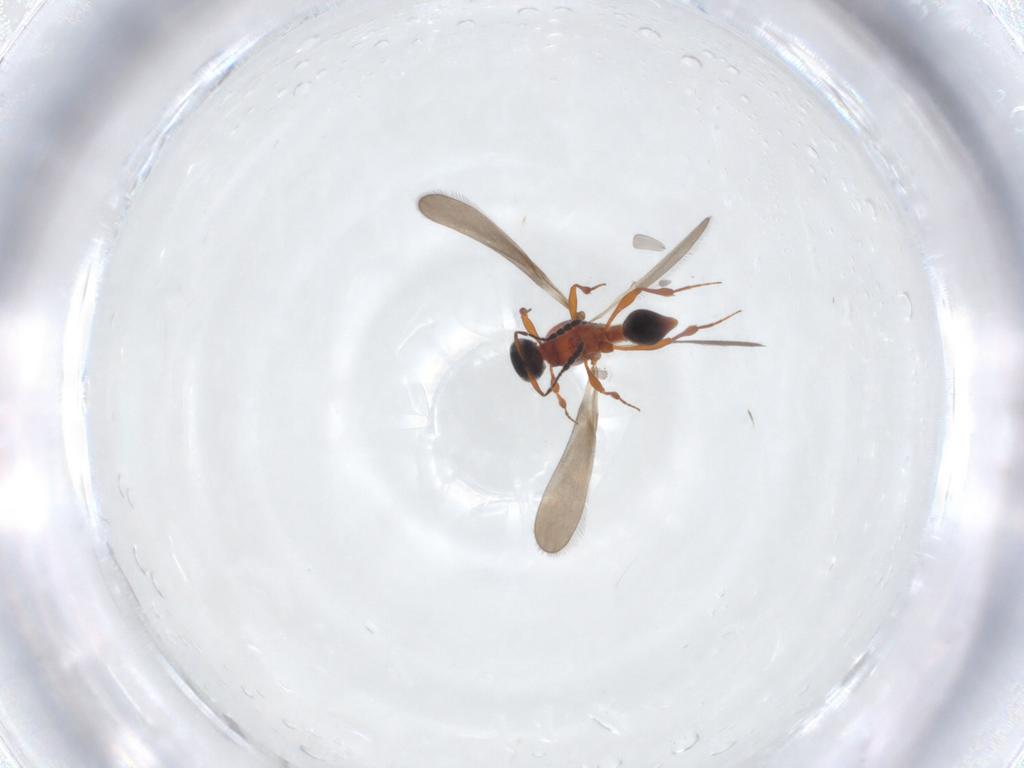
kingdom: Animalia
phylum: Arthropoda
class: Insecta
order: Hymenoptera
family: Platygastridae
